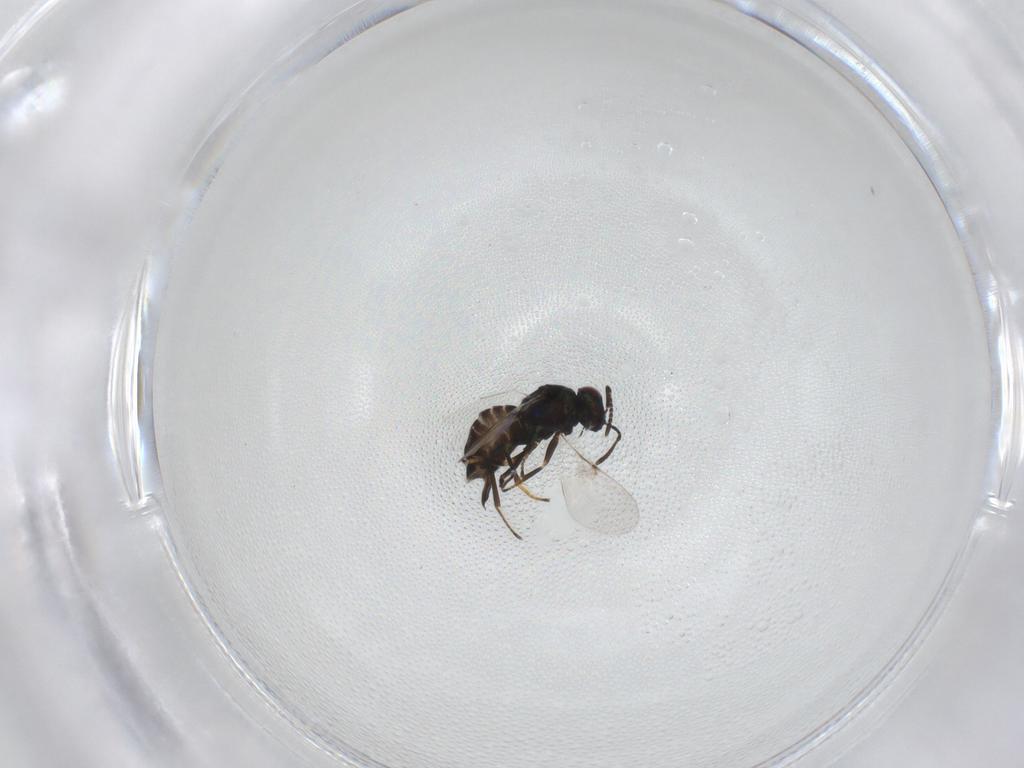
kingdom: Animalia
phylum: Arthropoda
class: Insecta
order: Hymenoptera
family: Encyrtidae
